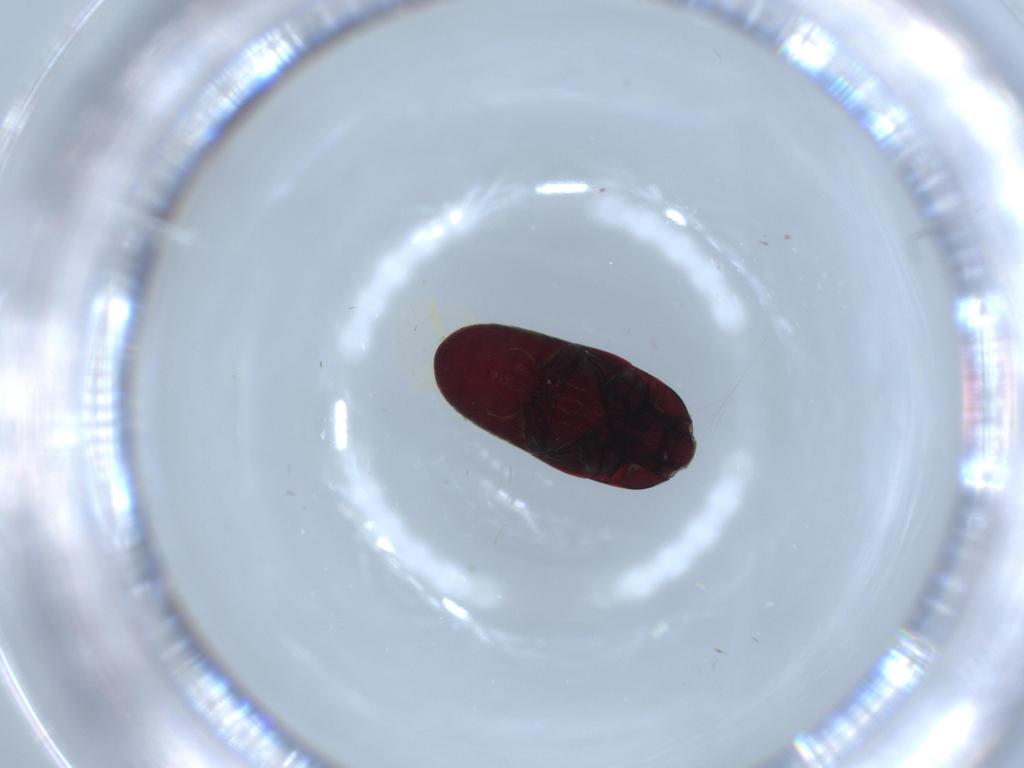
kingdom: Animalia
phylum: Arthropoda
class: Insecta
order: Coleoptera
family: Throscidae
